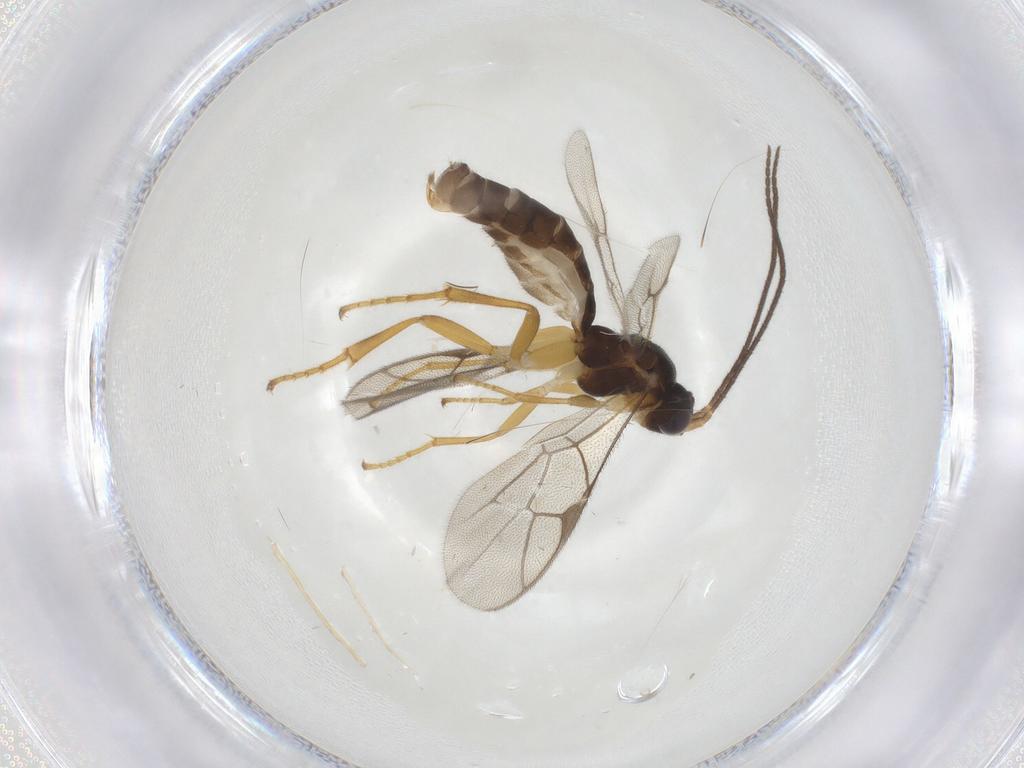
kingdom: Animalia
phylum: Arthropoda
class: Insecta
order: Hymenoptera
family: Ichneumonidae
